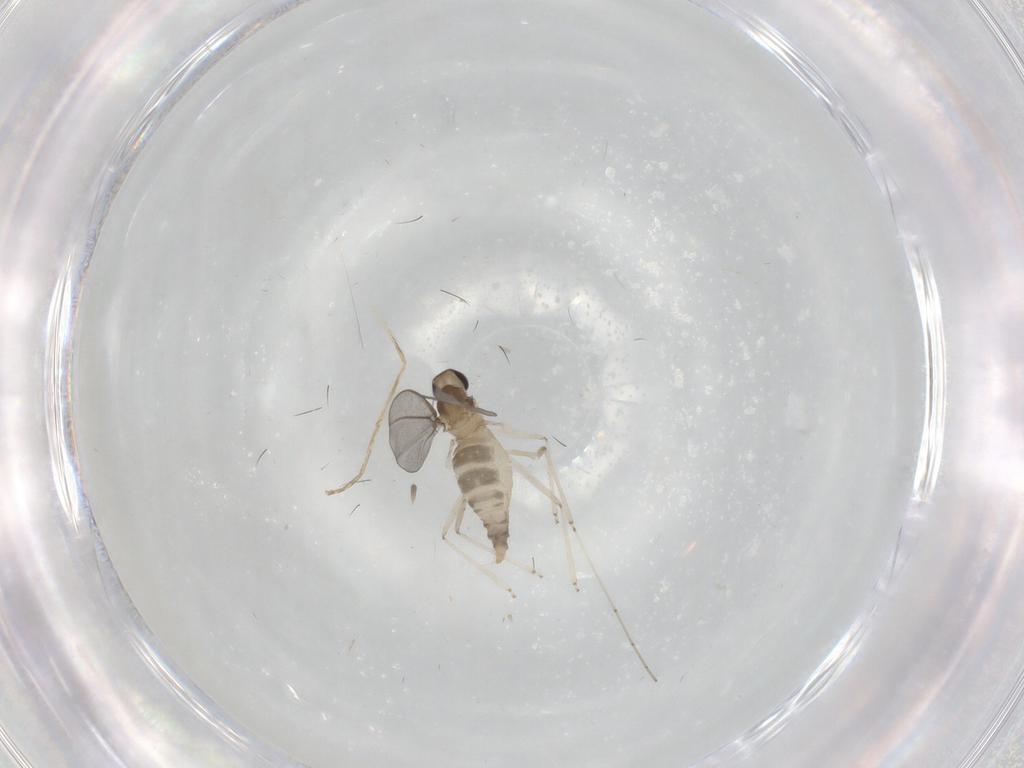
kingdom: Animalia
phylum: Arthropoda
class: Insecta
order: Diptera
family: Cecidomyiidae
